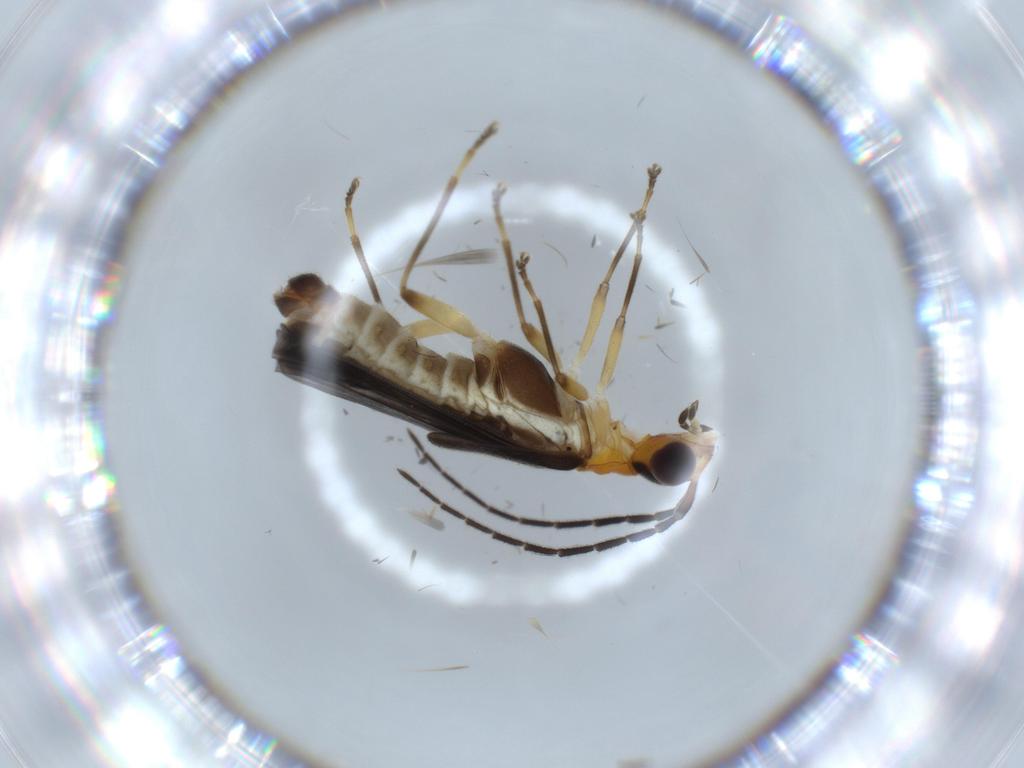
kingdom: Animalia
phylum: Arthropoda
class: Insecta
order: Coleoptera
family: Cantharidae
